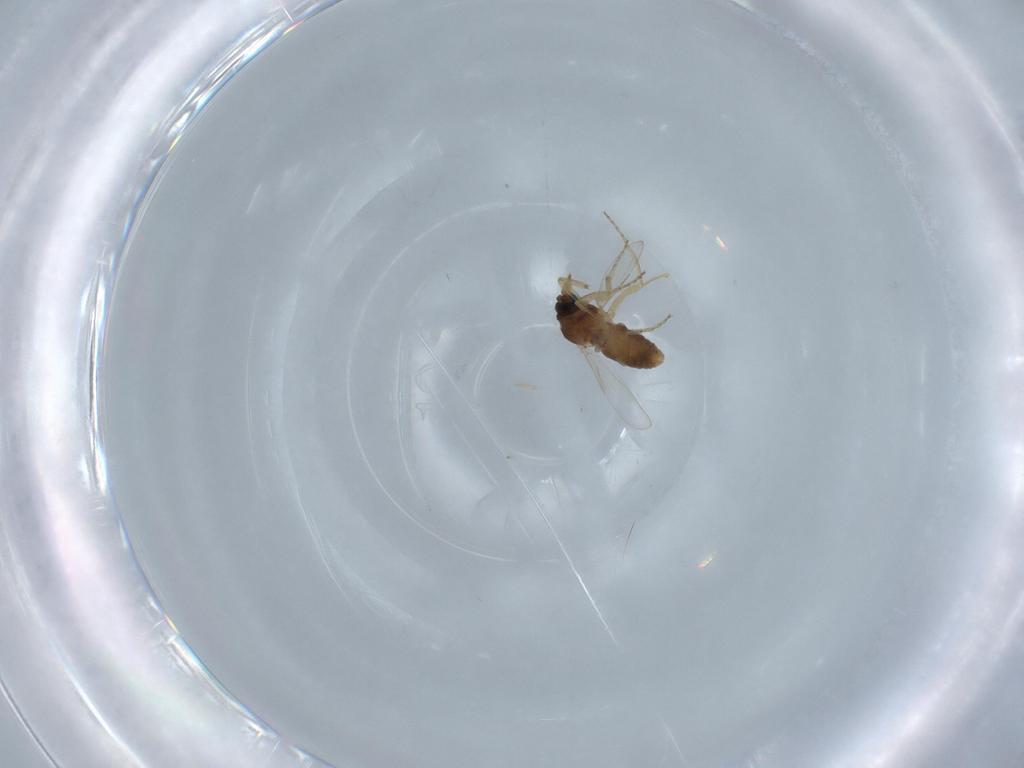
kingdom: Animalia
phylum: Arthropoda
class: Insecta
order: Diptera
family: Ceratopogonidae
